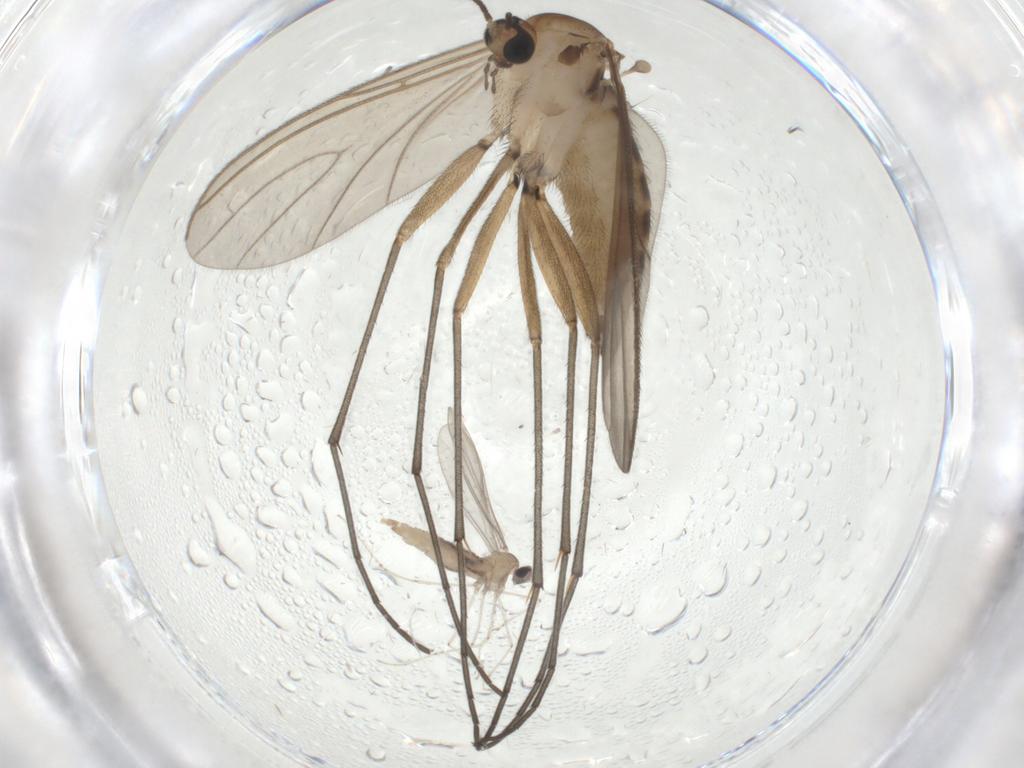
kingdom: Animalia
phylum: Arthropoda
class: Insecta
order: Diptera
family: Sciaridae
